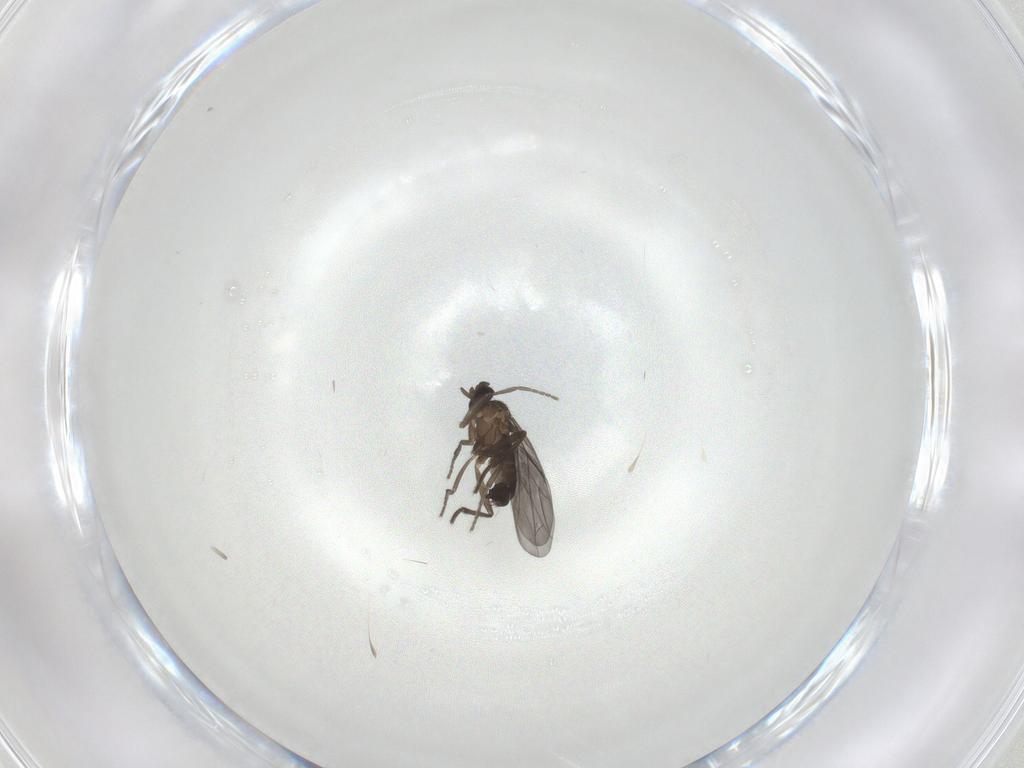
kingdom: Animalia
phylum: Arthropoda
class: Insecta
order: Diptera
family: Phoridae
